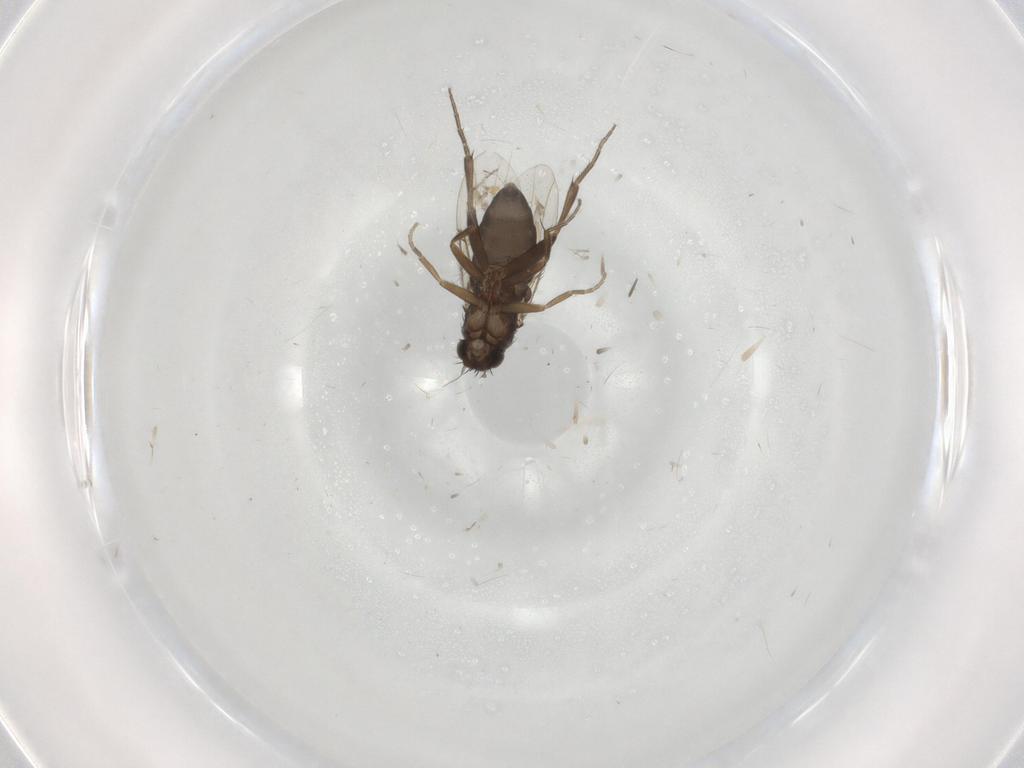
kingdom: Animalia
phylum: Arthropoda
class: Insecta
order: Diptera
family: Phoridae
